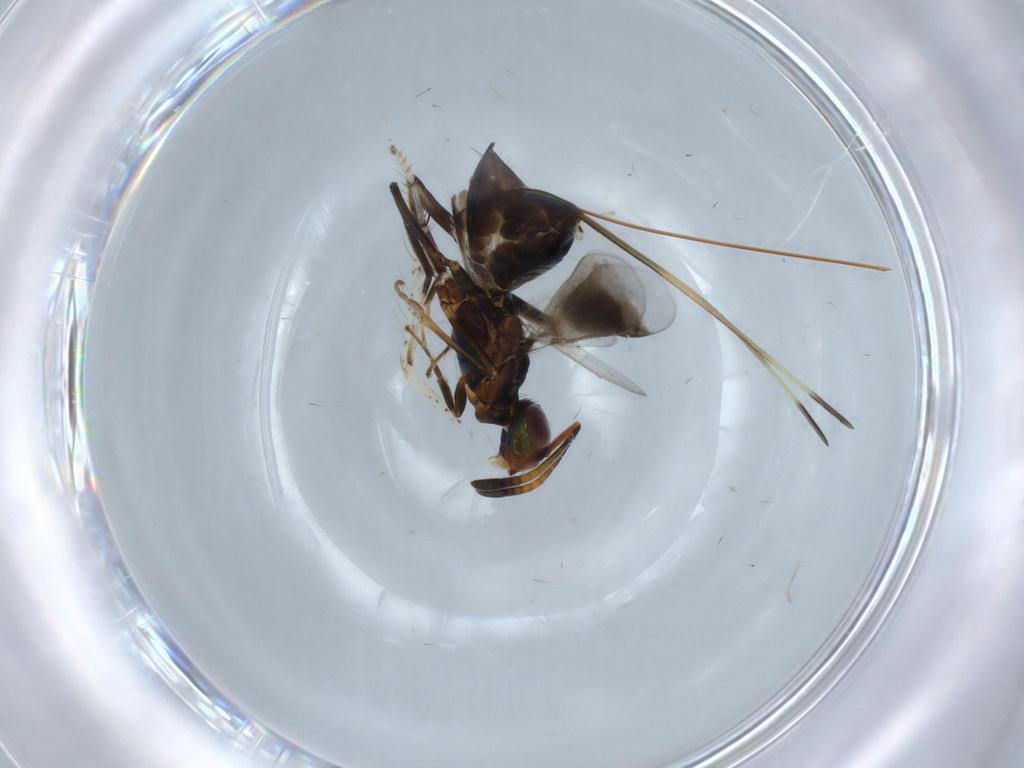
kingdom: Animalia
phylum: Arthropoda
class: Insecta
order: Hymenoptera
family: Eupelmidae
